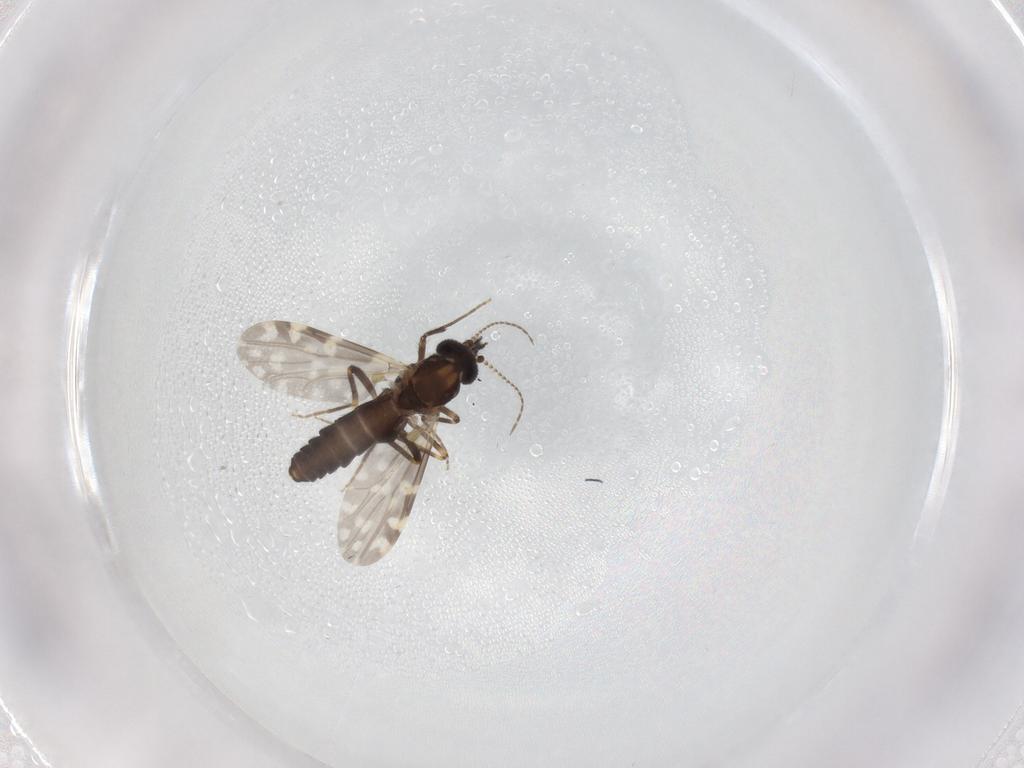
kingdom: Animalia
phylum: Arthropoda
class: Insecta
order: Diptera
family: Ceratopogonidae
